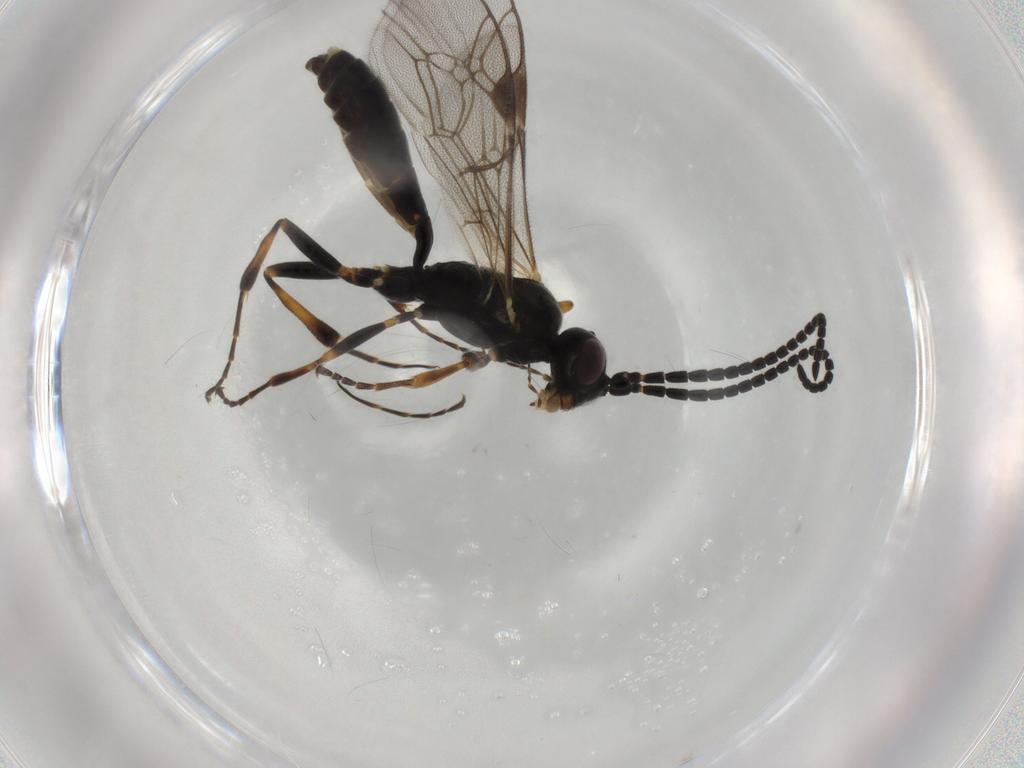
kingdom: Animalia
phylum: Arthropoda
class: Insecta
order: Hymenoptera
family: Ichneumonidae
